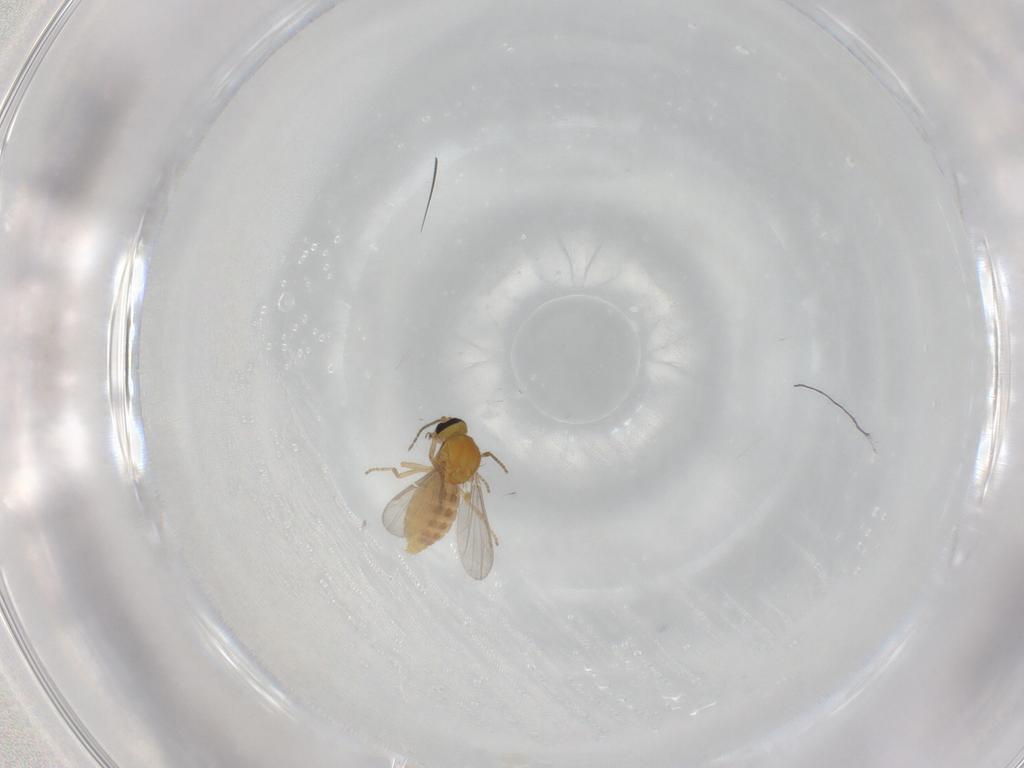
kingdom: Animalia
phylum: Arthropoda
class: Insecta
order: Diptera
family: Ceratopogonidae
